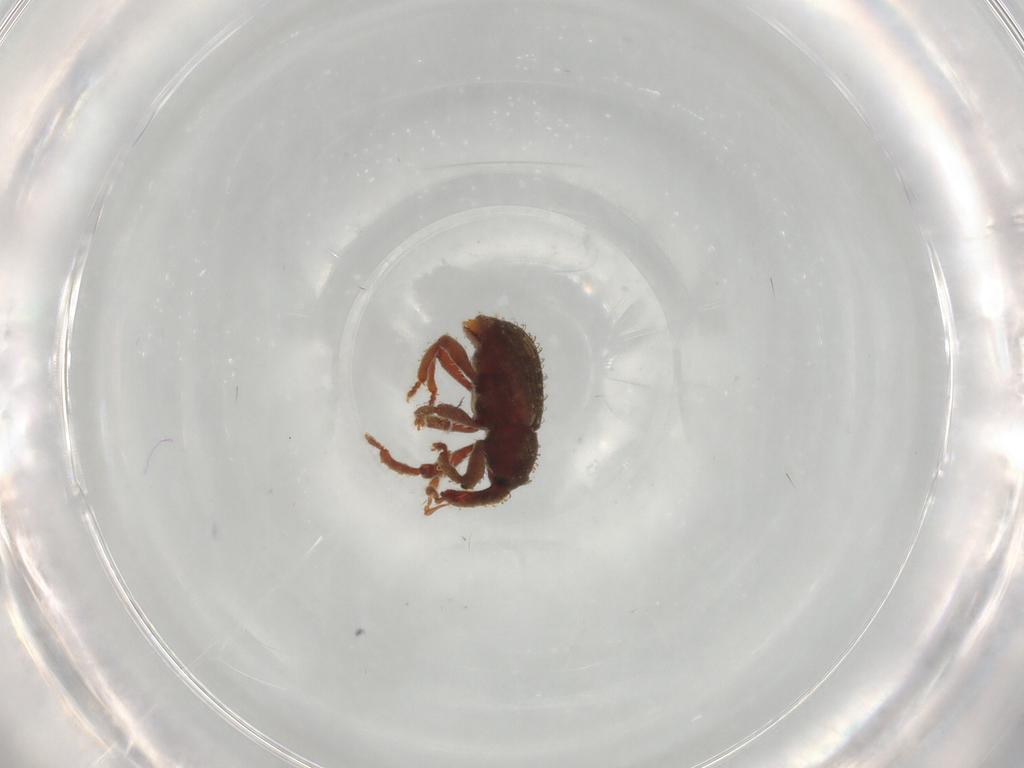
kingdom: Animalia
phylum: Arthropoda
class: Insecta
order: Coleoptera
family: Curculionidae
